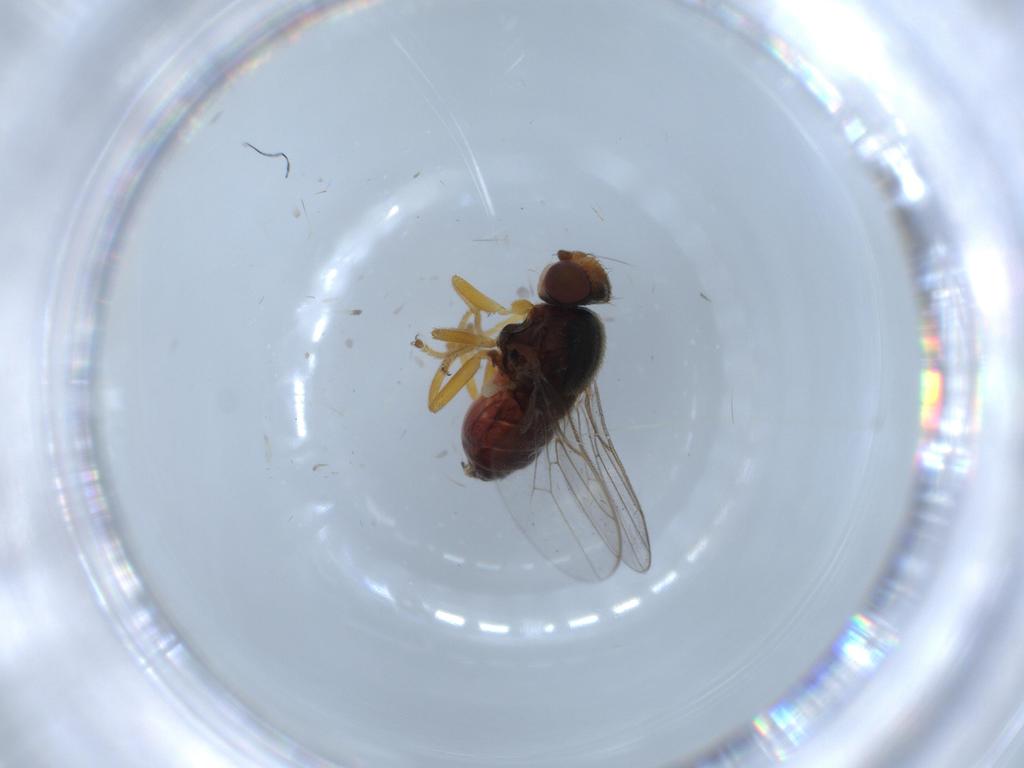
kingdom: Animalia
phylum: Arthropoda
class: Insecta
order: Diptera
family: Chloropidae
